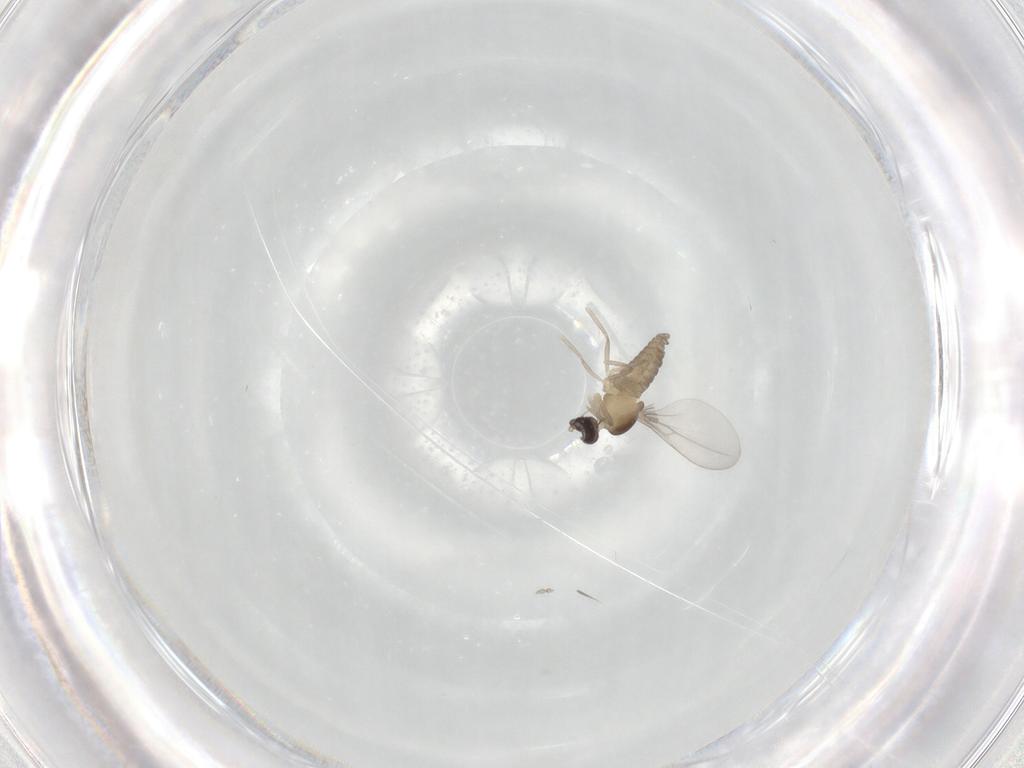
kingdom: Animalia
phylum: Arthropoda
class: Insecta
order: Diptera
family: Cecidomyiidae
